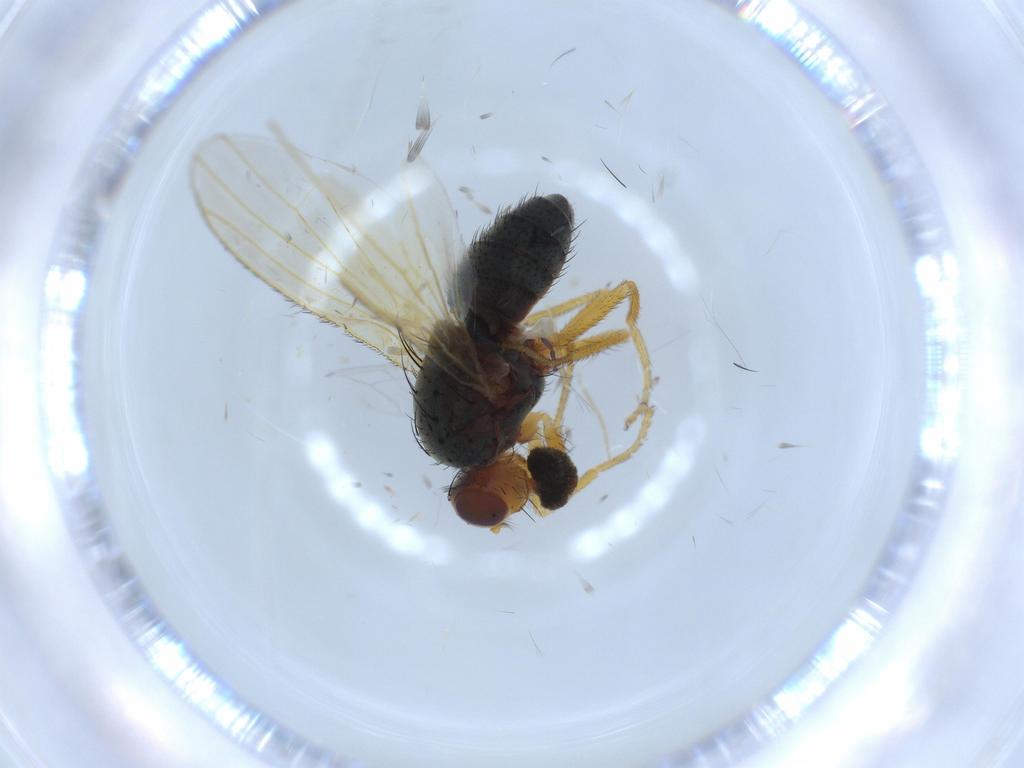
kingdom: Animalia
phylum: Arthropoda
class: Insecta
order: Diptera
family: Heleomyzidae
